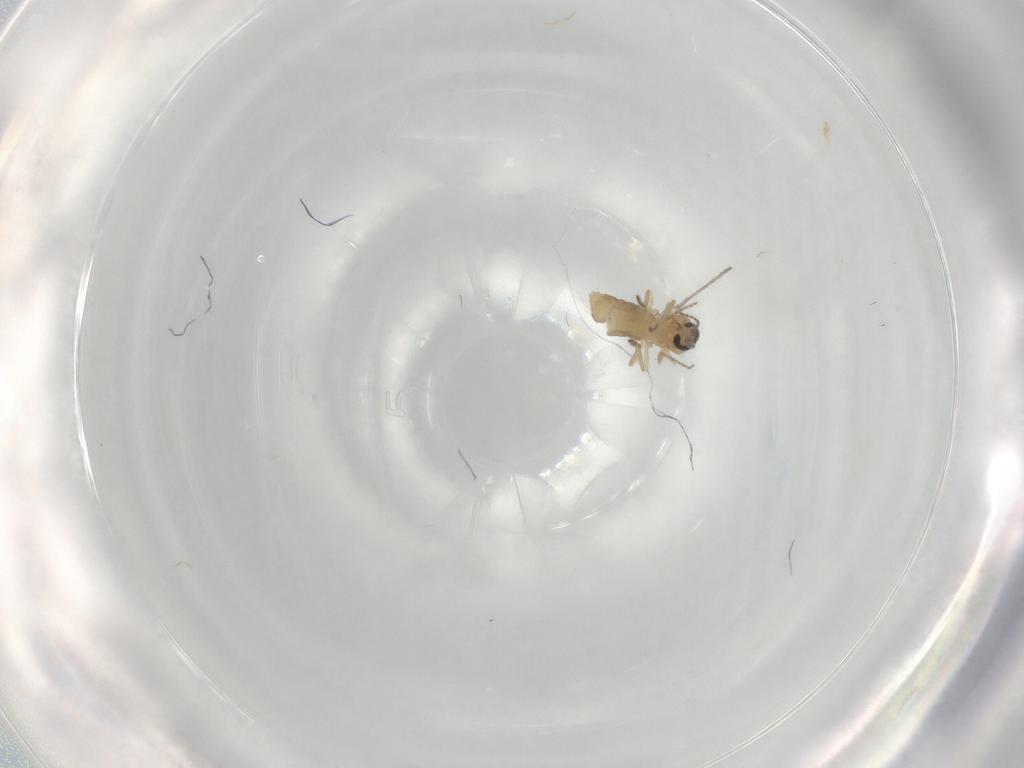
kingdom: Animalia
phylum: Arthropoda
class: Insecta
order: Diptera
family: Ceratopogonidae
